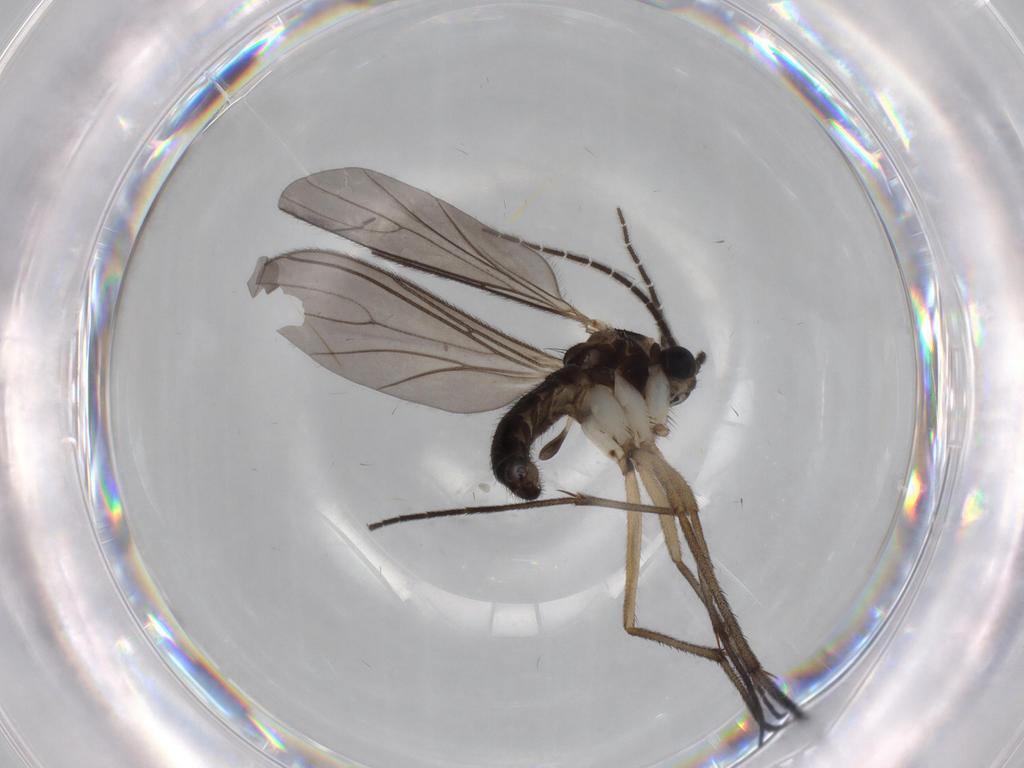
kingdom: Animalia
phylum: Arthropoda
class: Insecta
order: Diptera
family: Sciaridae
